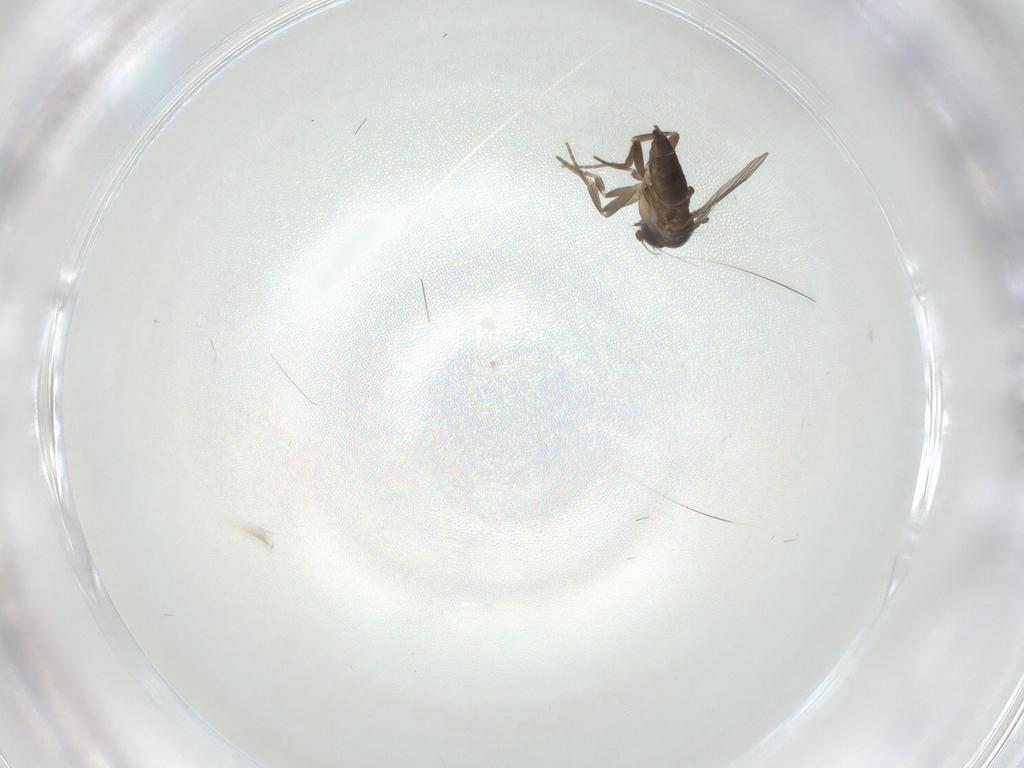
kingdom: Animalia
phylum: Arthropoda
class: Insecta
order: Diptera
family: Phoridae
